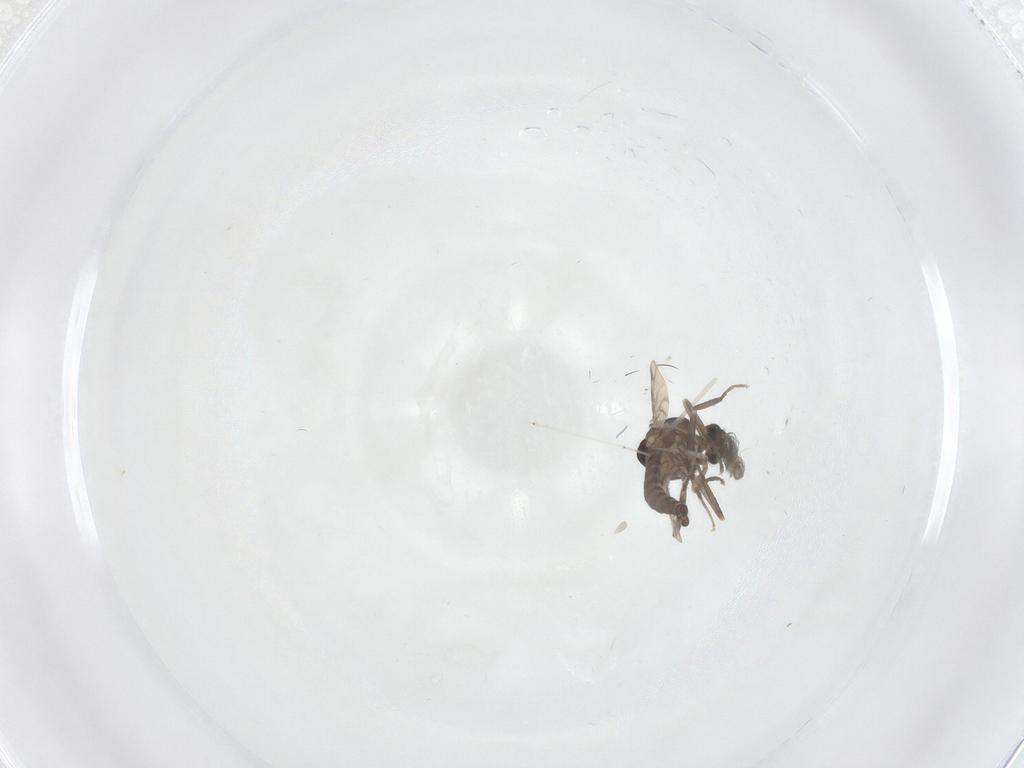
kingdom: Animalia
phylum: Arthropoda
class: Insecta
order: Diptera
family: Ceratopogonidae
